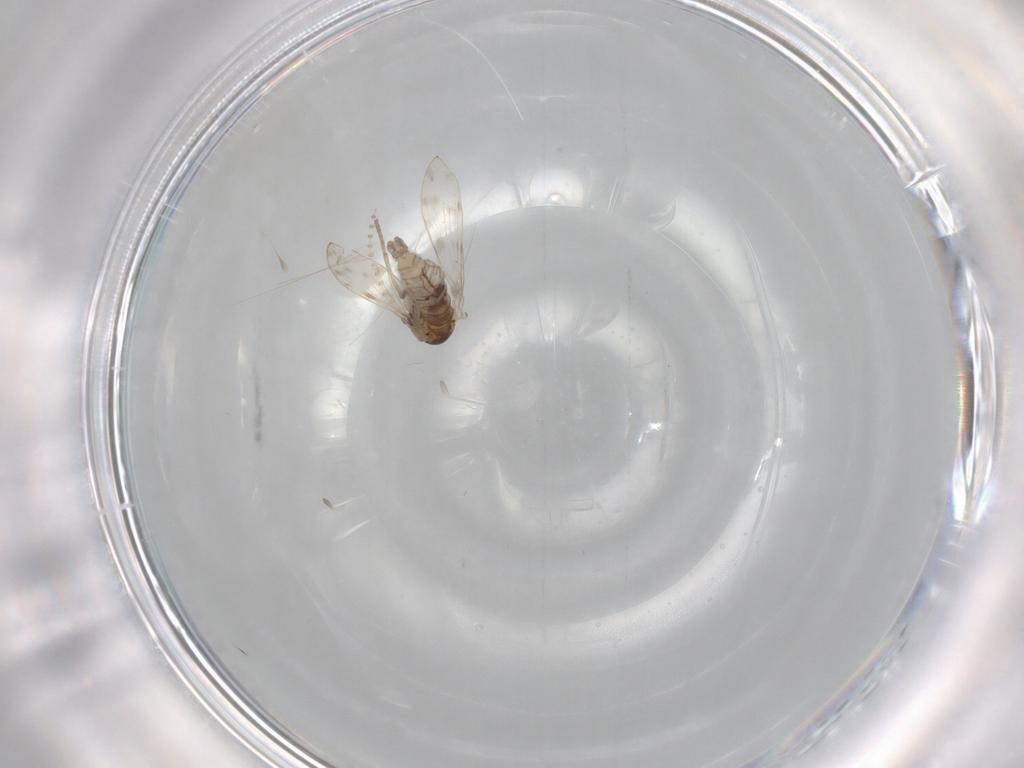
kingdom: Animalia
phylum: Arthropoda
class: Insecta
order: Diptera
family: Psychodidae
